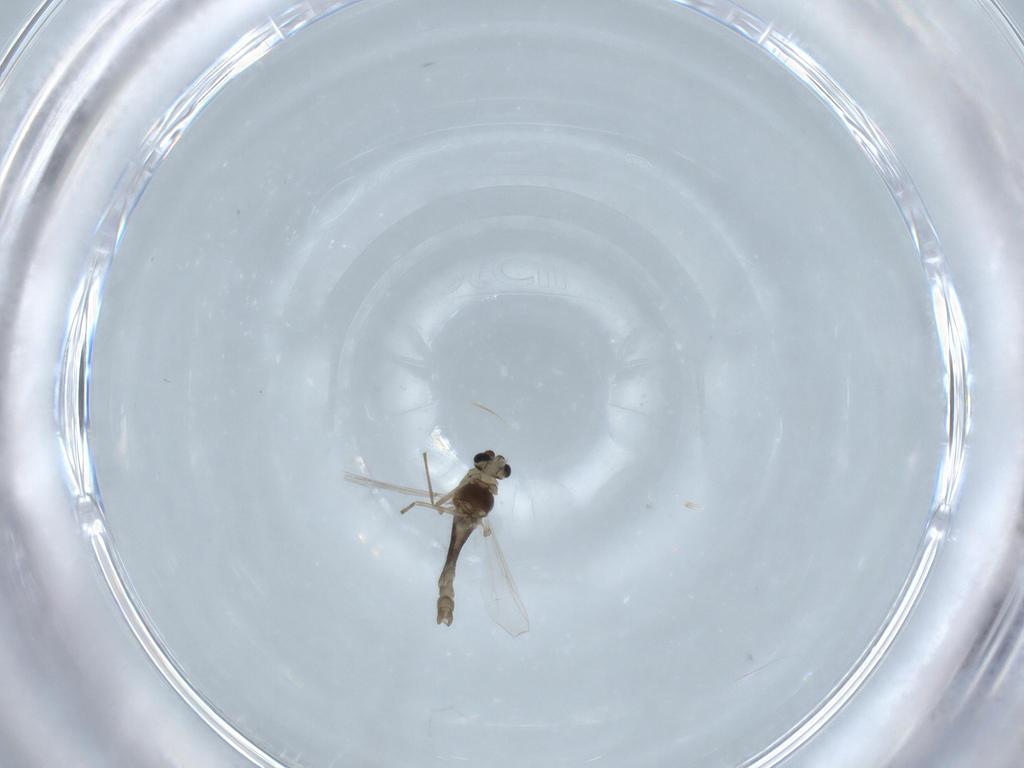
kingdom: Animalia
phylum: Arthropoda
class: Insecta
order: Diptera
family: Chironomidae
